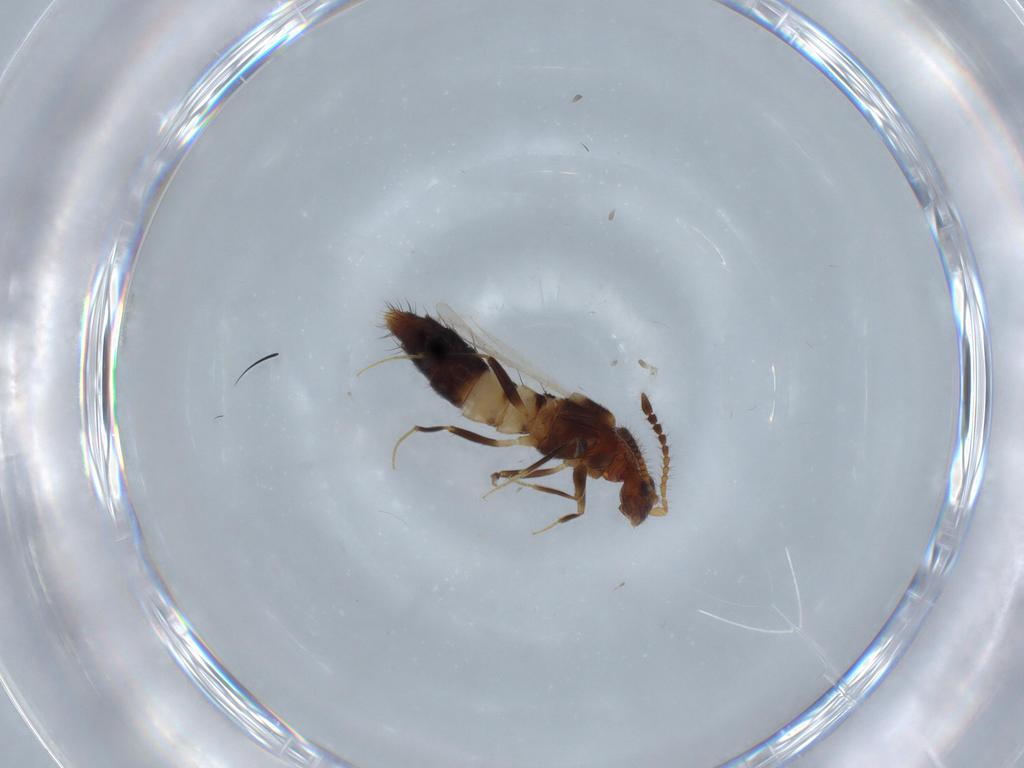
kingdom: Animalia
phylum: Arthropoda
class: Insecta
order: Coleoptera
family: Staphylinidae
